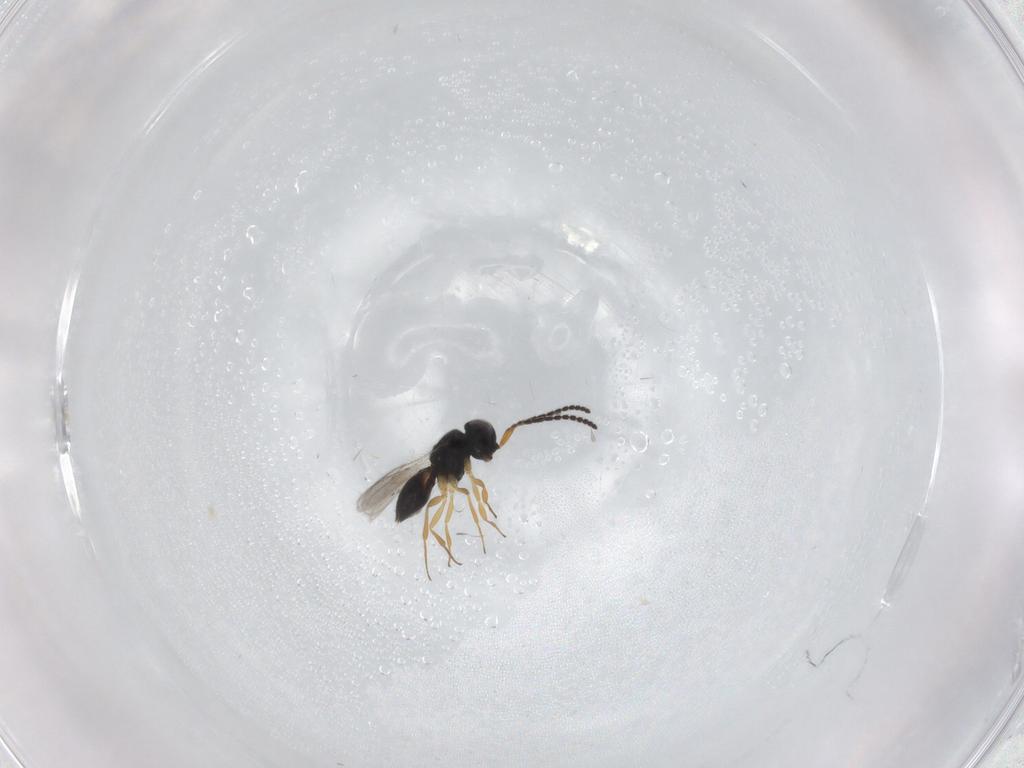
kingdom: Animalia
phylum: Arthropoda
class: Insecta
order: Hymenoptera
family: Scelionidae
